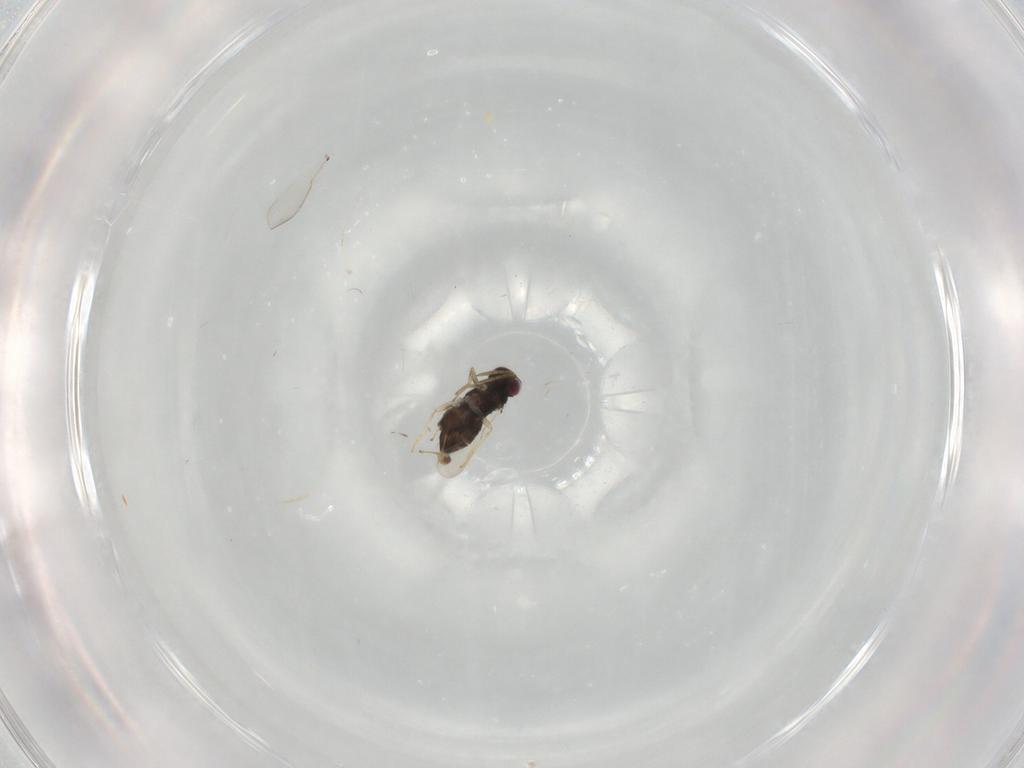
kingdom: Animalia
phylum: Arthropoda
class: Insecta
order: Hymenoptera
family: Aphelinidae
